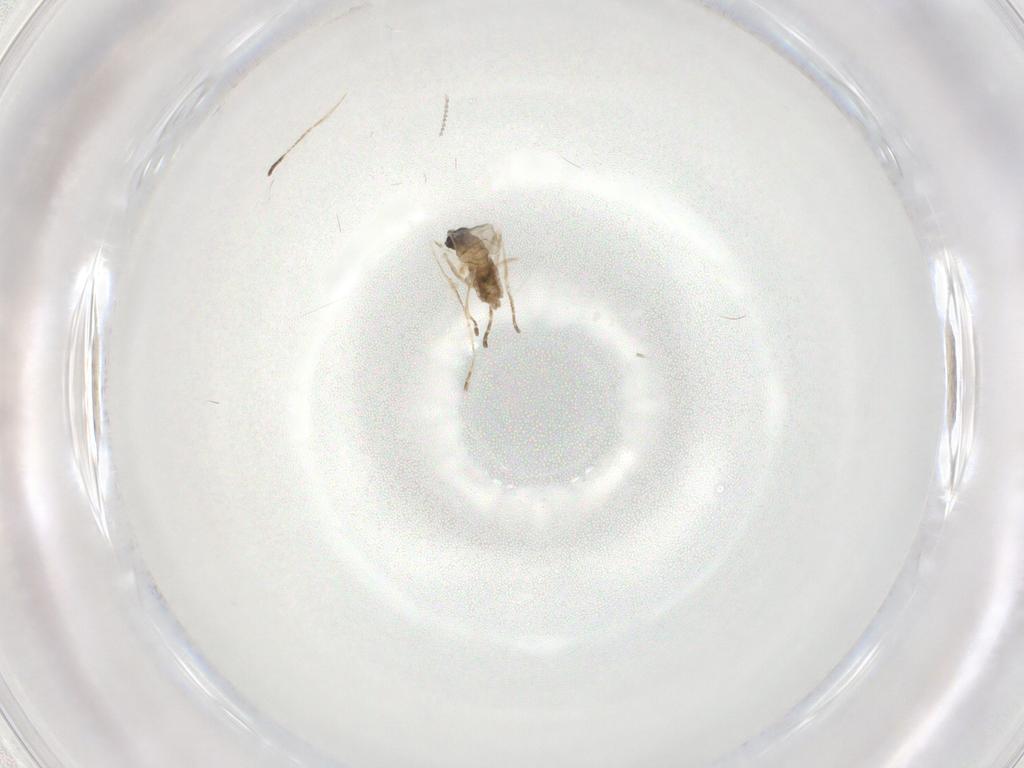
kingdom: Animalia
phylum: Arthropoda
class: Insecta
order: Diptera
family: Cecidomyiidae
